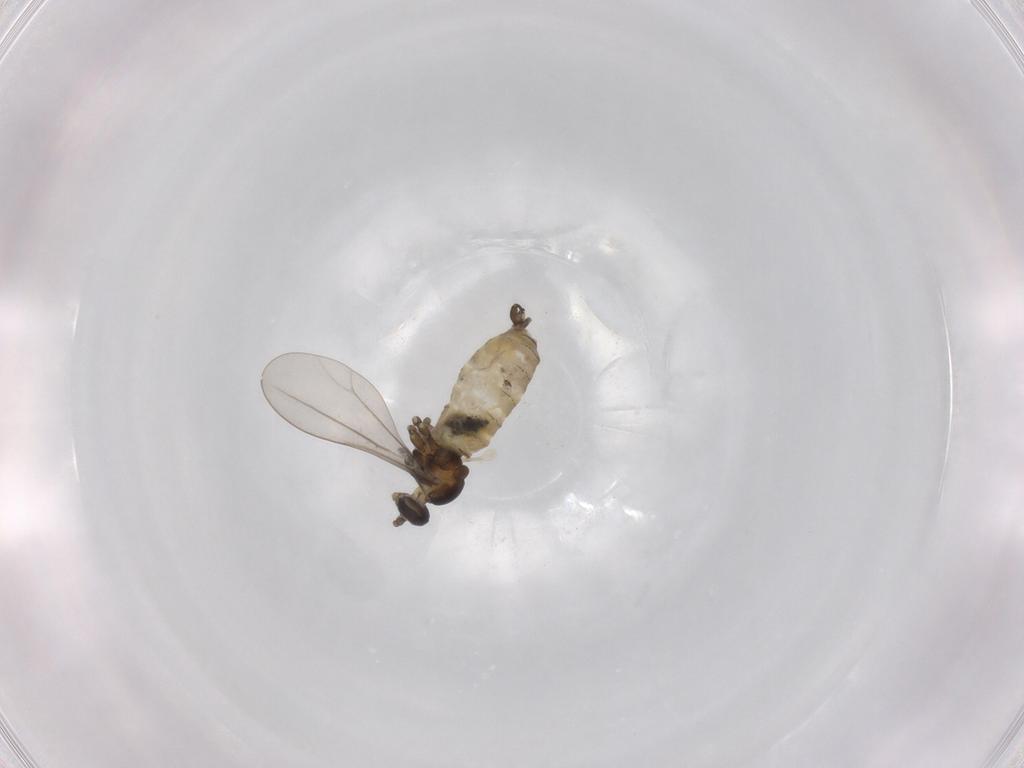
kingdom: Animalia
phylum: Arthropoda
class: Insecta
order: Diptera
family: Cecidomyiidae
